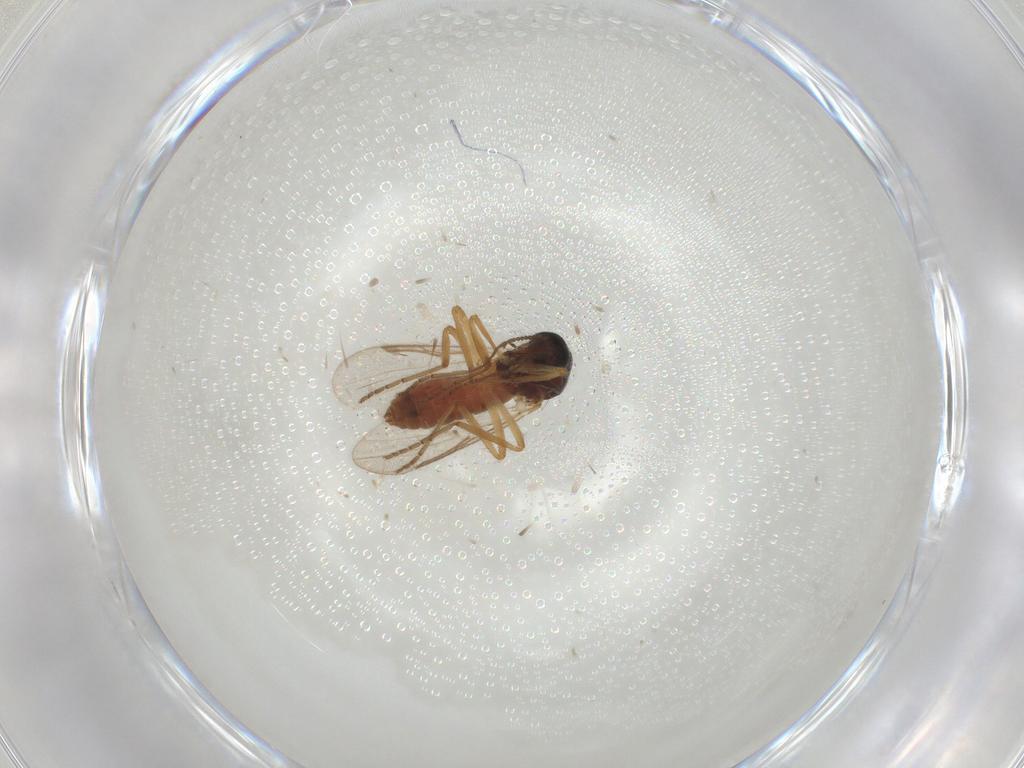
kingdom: Animalia
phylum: Arthropoda
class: Insecta
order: Diptera
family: Ceratopogonidae
